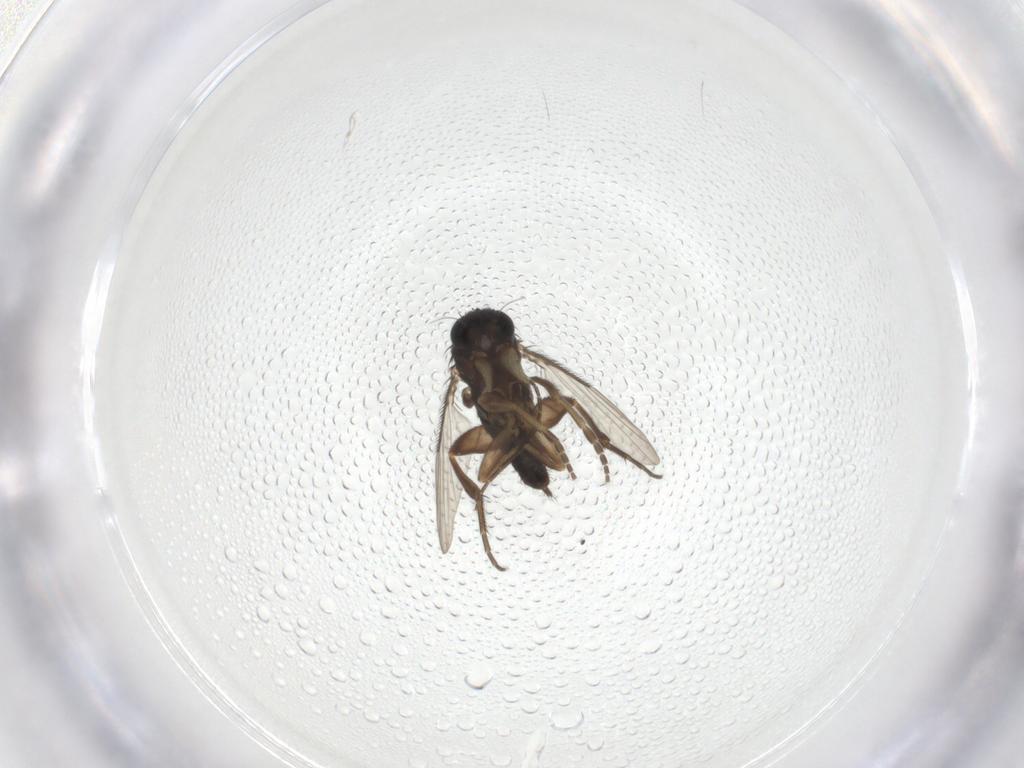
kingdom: Animalia
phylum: Arthropoda
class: Insecta
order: Diptera
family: Phoridae
